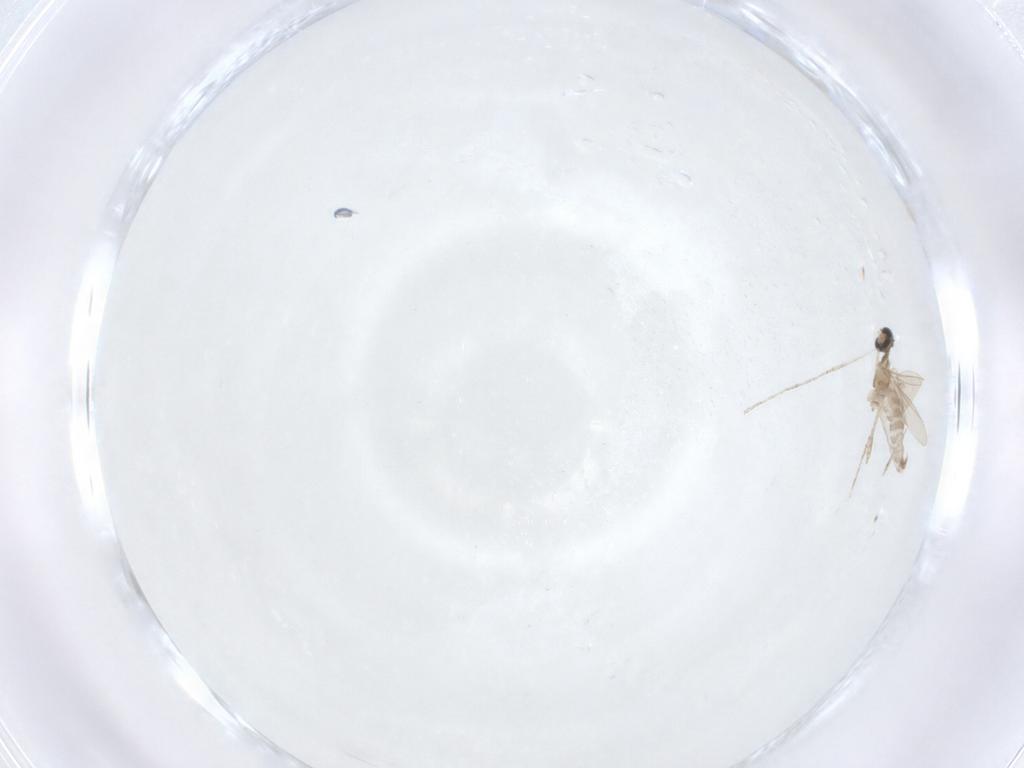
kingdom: Animalia
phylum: Arthropoda
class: Insecta
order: Diptera
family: Cecidomyiidae
